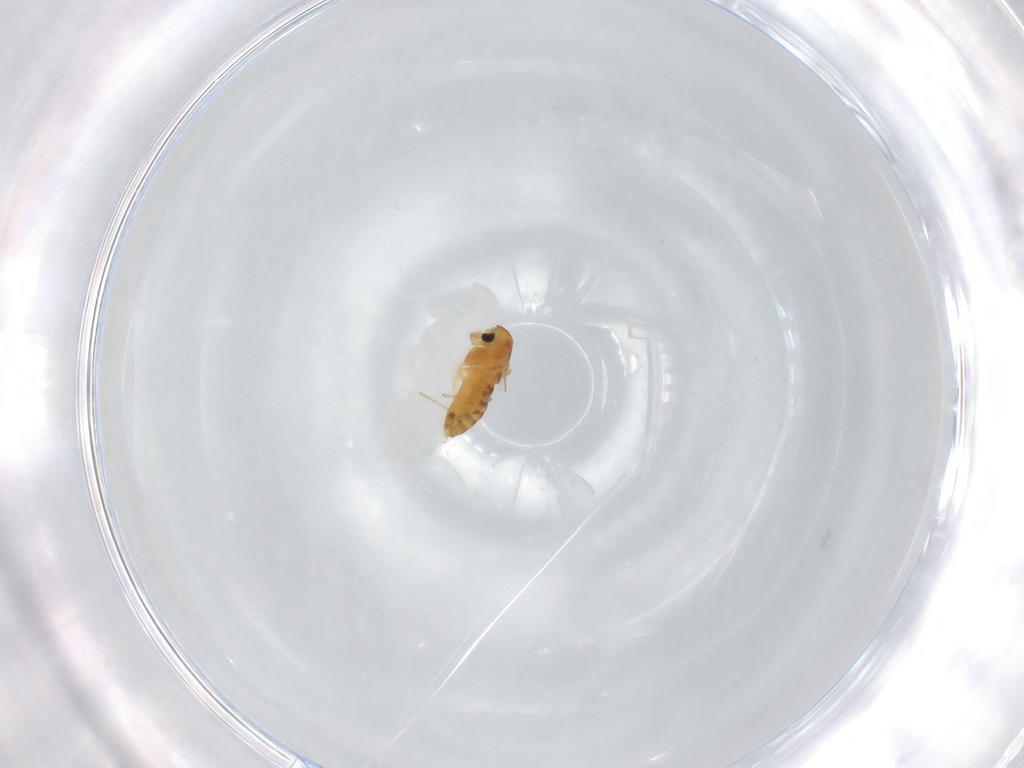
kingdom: Animalia
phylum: Arthropoda
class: Insecta
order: Diptera
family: Chironomidae
